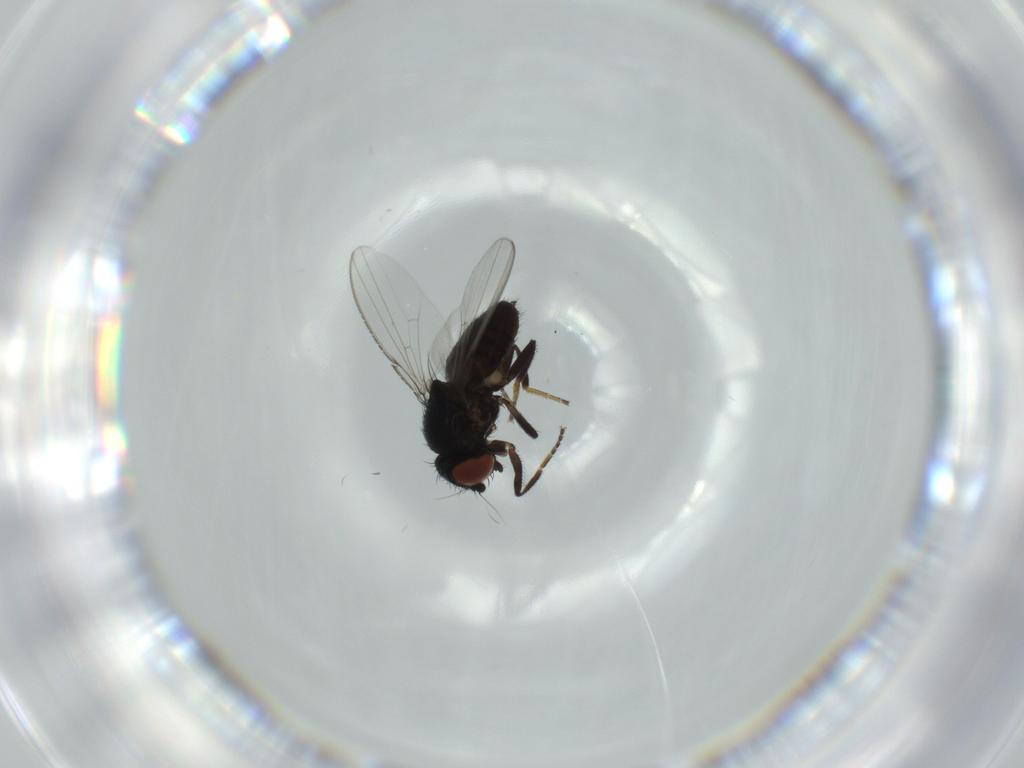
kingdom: Animalia
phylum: Arthropoda
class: Insecta
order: Diptera
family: Milichiidae
